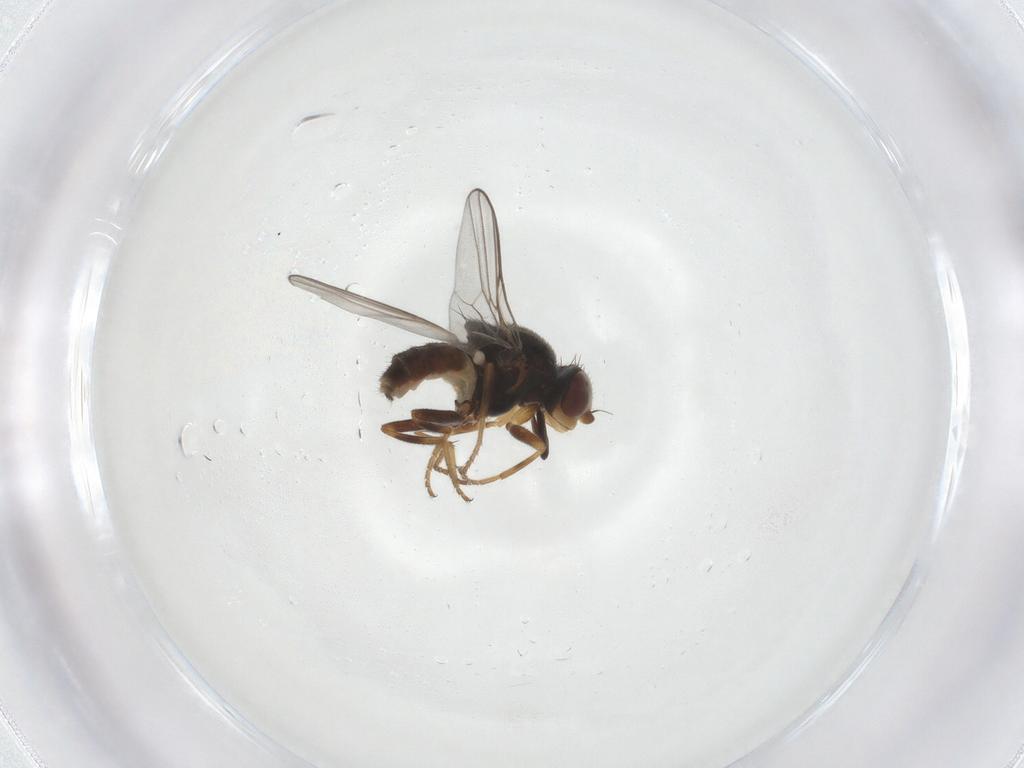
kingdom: Animalia
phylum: Arthropoda
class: Insecta
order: Diptera
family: Chloropidae
